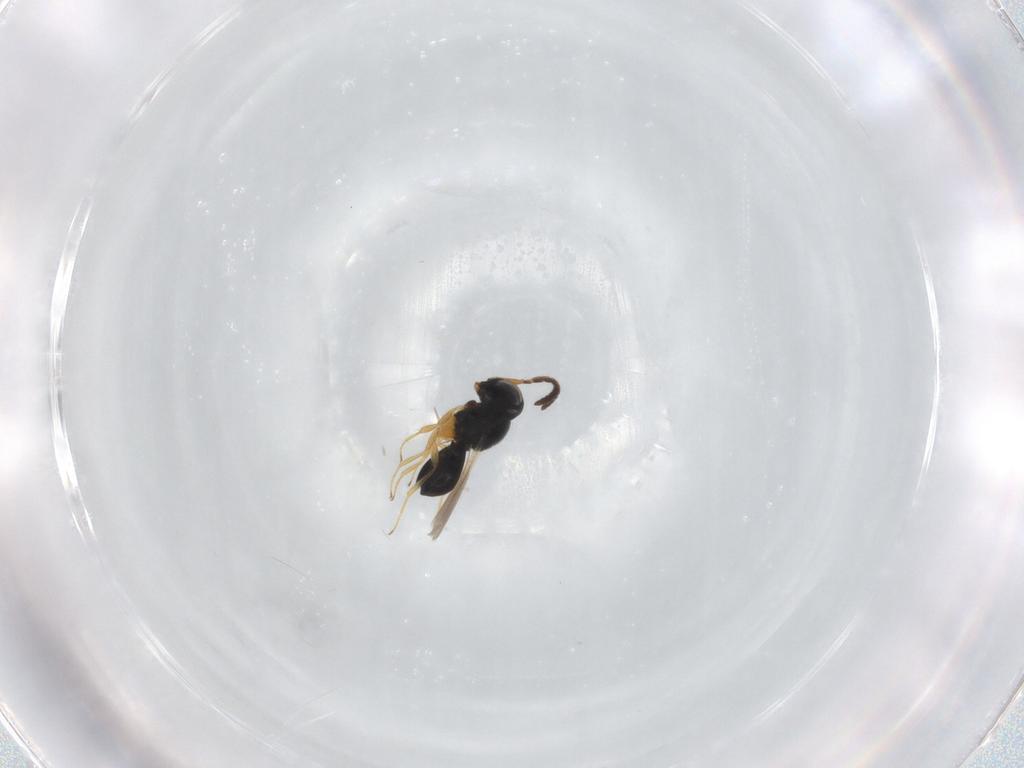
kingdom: Animalia
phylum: Arthropoda
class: Insecta
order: Hymenoptera
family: Scelionidae
